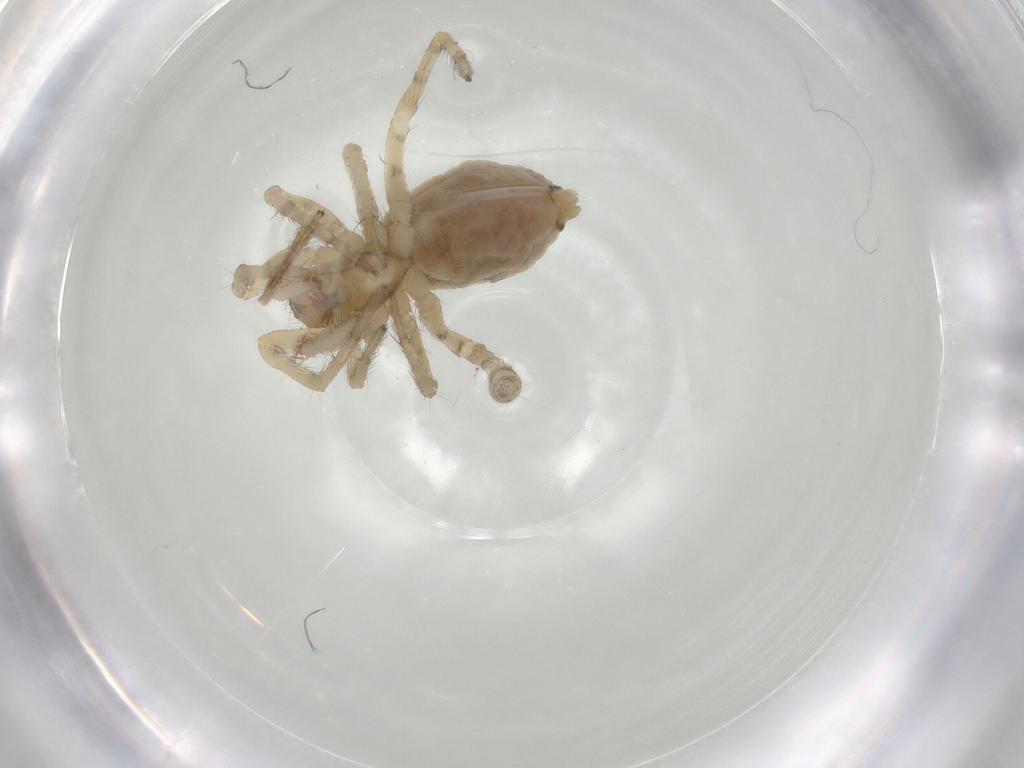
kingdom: Animalia
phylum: Arthropoda
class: Insecta
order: Diptera
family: Chironomidae
